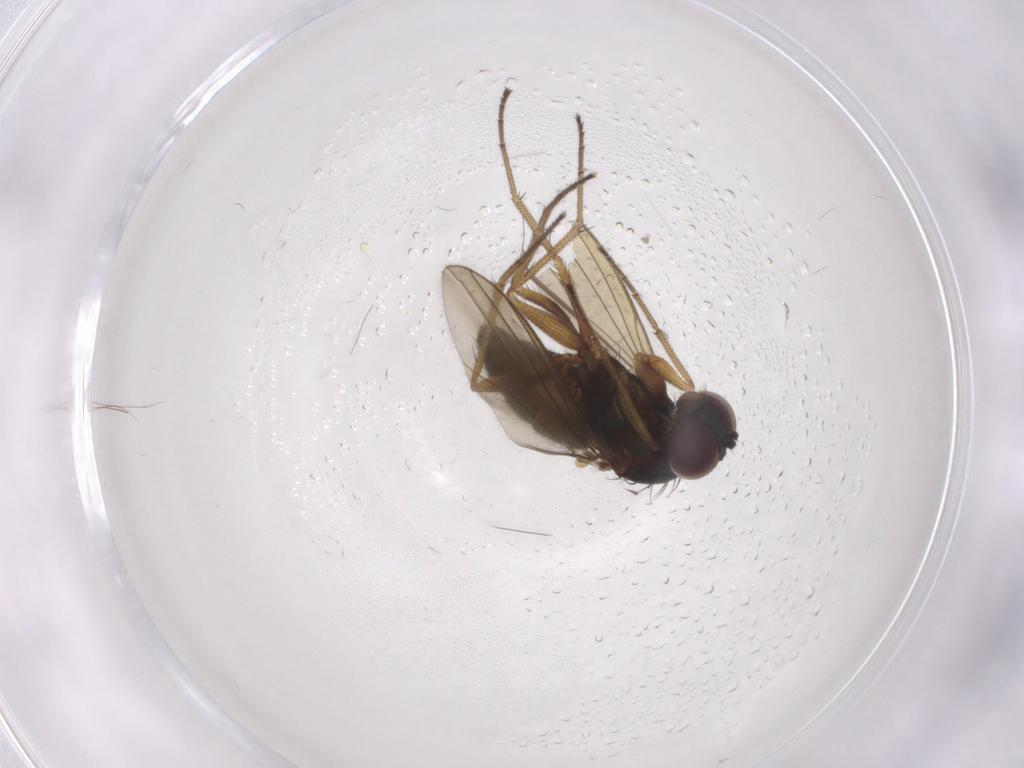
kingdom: Animalia
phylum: Arthropoda
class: Insecta
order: Diptera
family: Dolichopodidae
